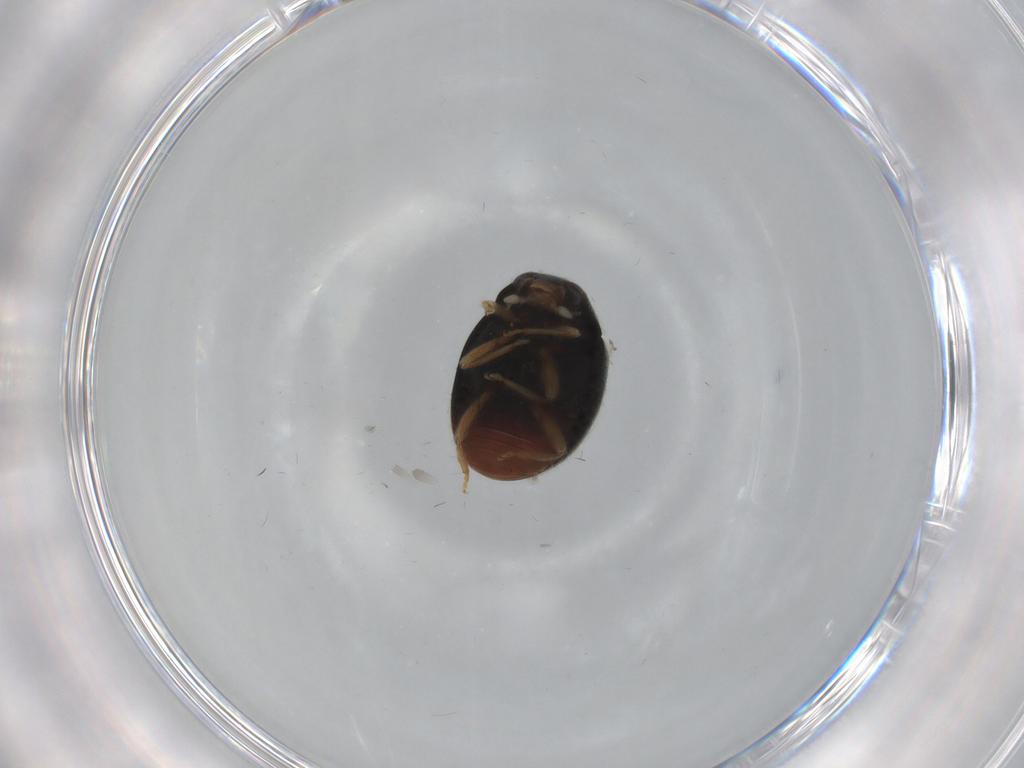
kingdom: Animalia
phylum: Arthropoda
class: Insecta
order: Coleoptera
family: Coccinellidae
